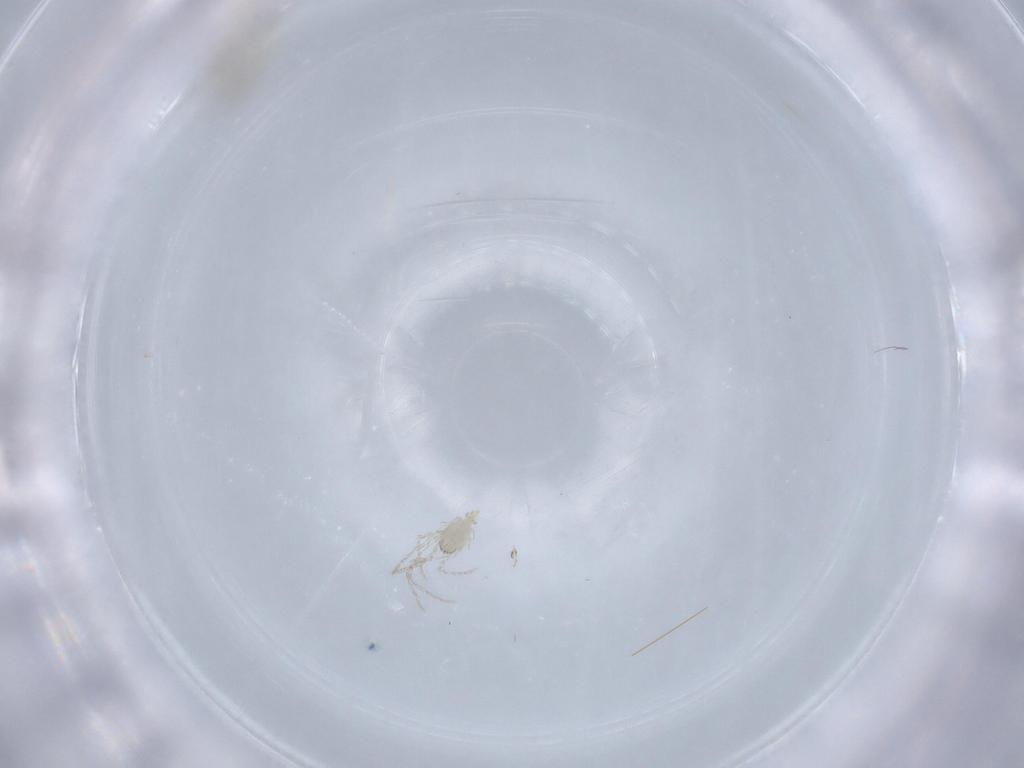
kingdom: Animalia
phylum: Arthropoda
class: Insecta
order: Diptera
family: Cecidomyiidae
